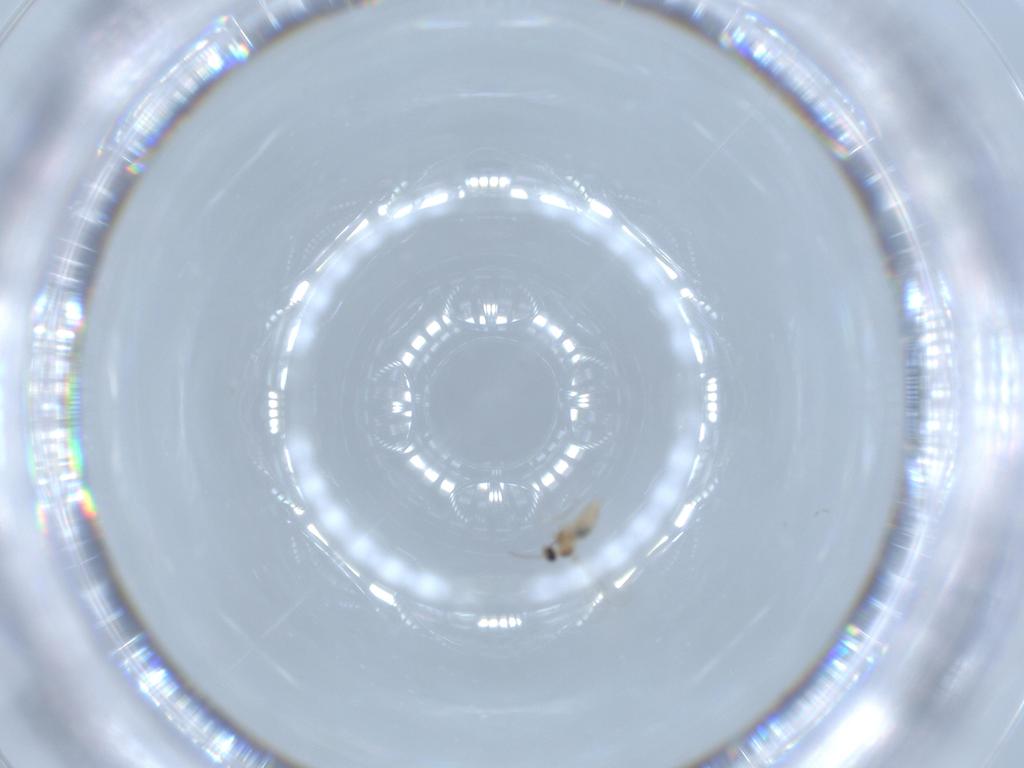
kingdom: Animalia
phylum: Arthropoda
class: Insecta
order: Diptera
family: Cecidomyiidae
